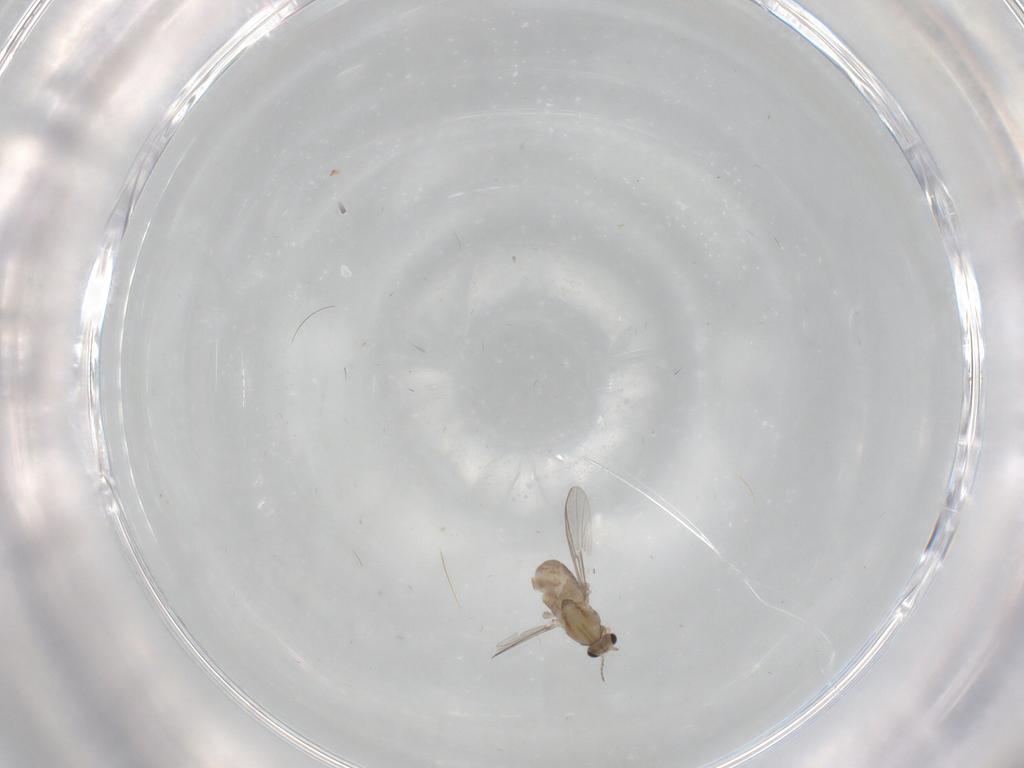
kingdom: Animalia
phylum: Arthropoda
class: Insecta
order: Diptera
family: Chironomidae
